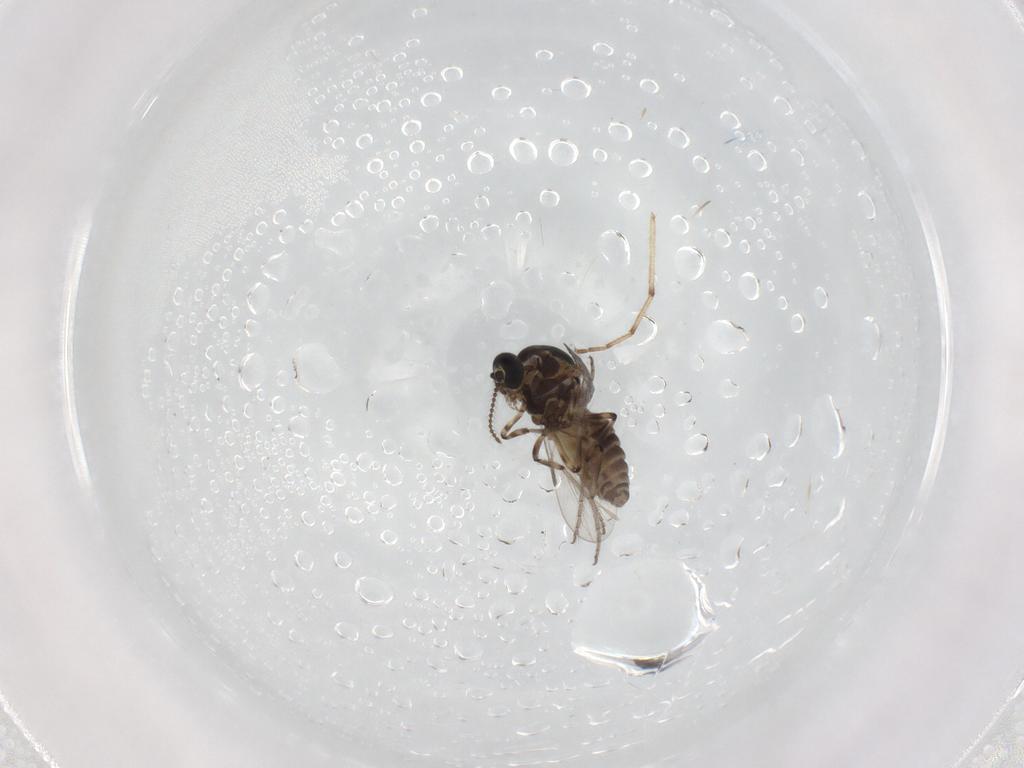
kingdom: Animalia
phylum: Arthropoda
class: Insecta
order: Diptera
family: Ceratopogonidae
